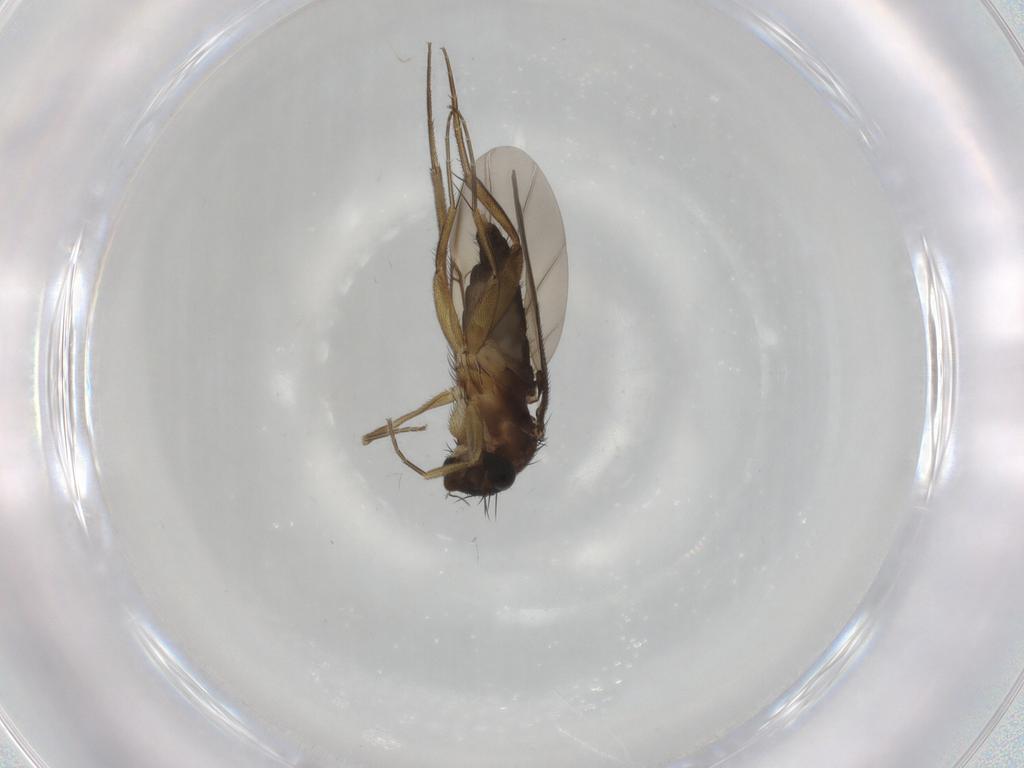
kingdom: Animalia
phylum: Arthropoda
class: Insecta
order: Diptera
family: Phoridae
